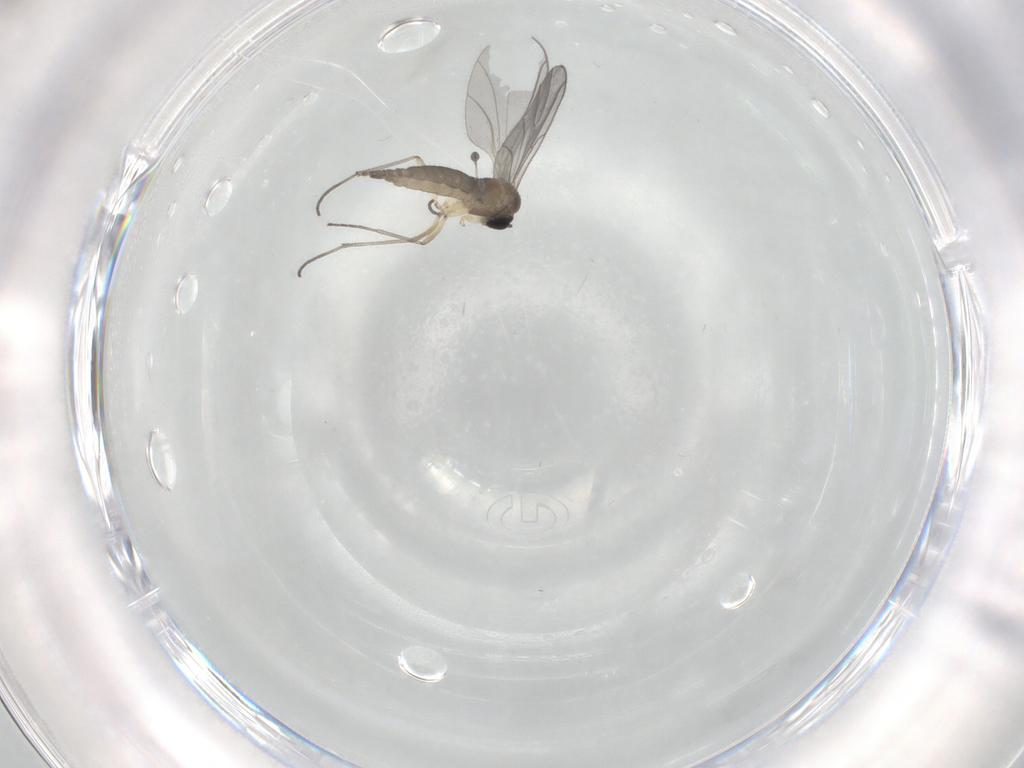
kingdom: Animalia
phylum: Arthropoda
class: Insecta
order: Diptera
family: Sciaridae
